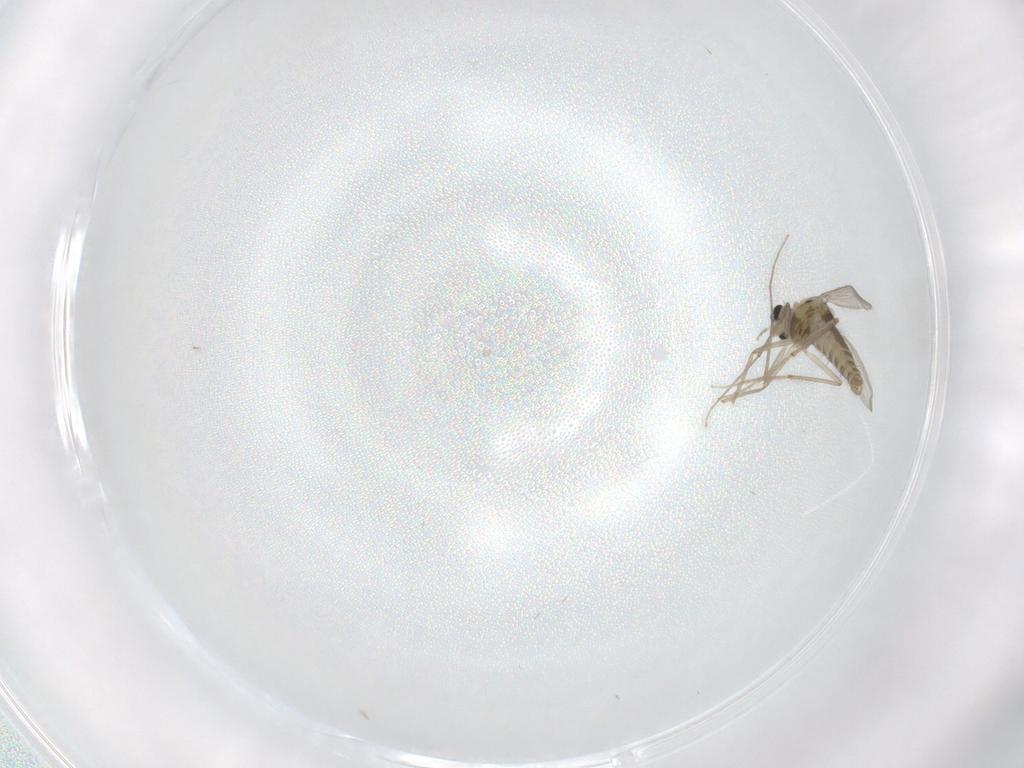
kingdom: Animalia
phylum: Arthropoda
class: Insecta
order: Diptera
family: Chironomidae
